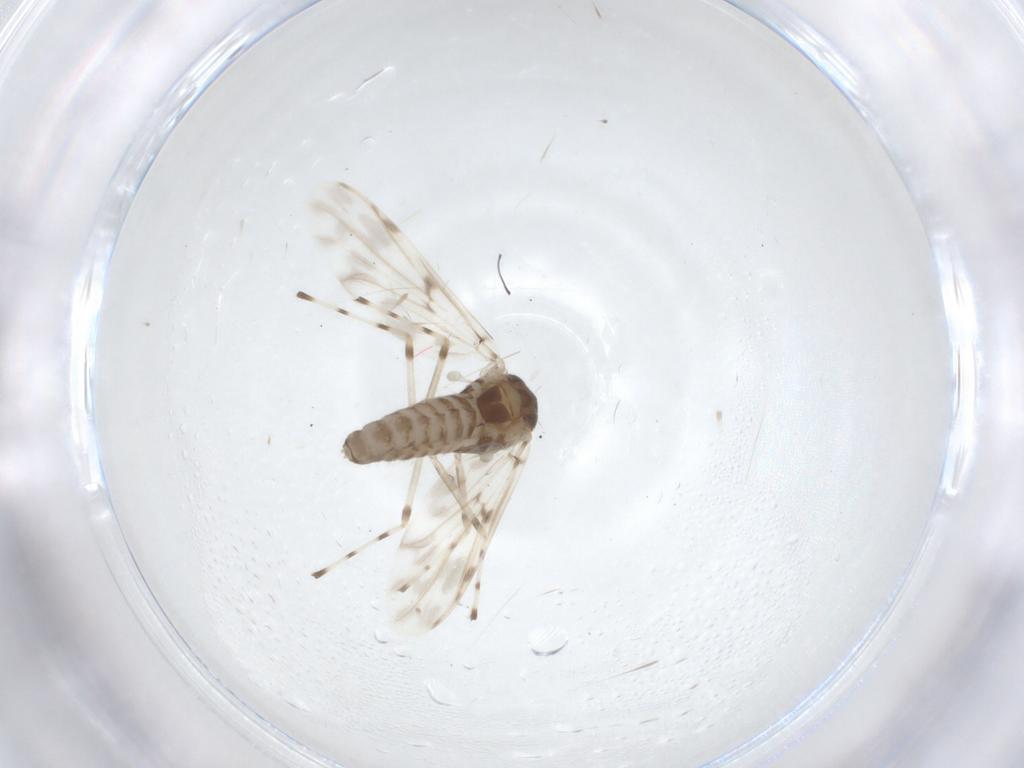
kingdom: Animalia
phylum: Arthropoda
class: Insecta
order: Diptera
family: Chironomidae
